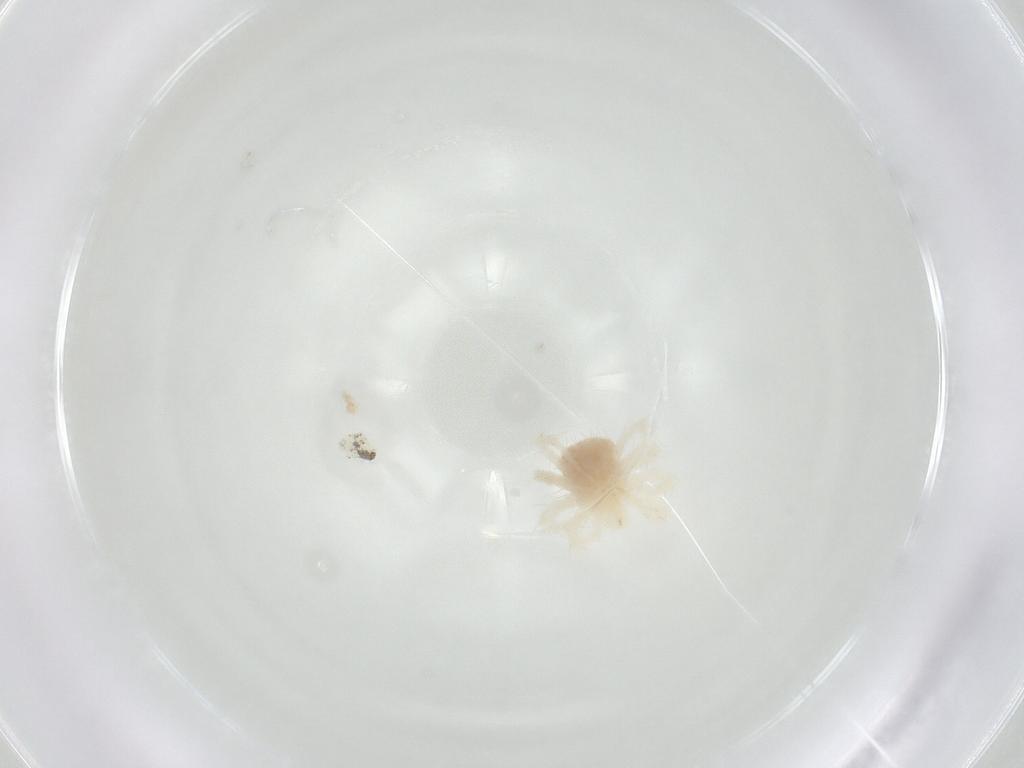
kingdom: Animalia
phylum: Arthropoda
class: Arachnida
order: Trombidiformes
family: Anystidae
